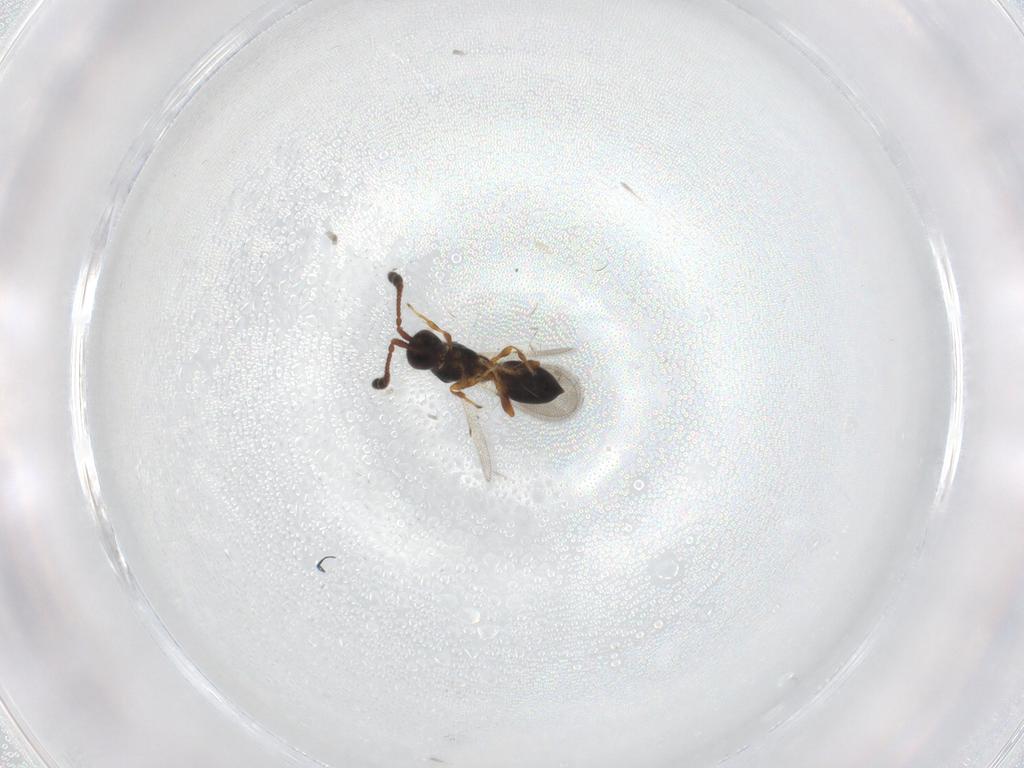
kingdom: Animalia
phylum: Arthropoda
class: Insecta
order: Hymenoptera
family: Diapriidae
